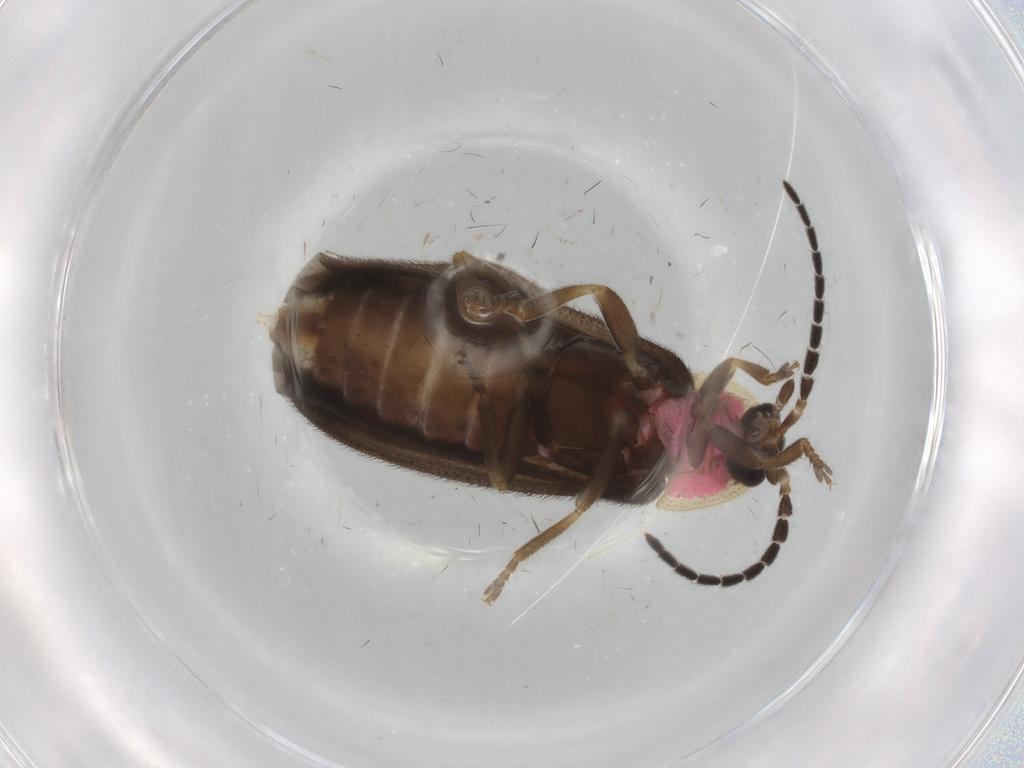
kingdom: Animalia
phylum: Arthropoda
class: Insecta
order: Coleoptera
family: Lampyridae
